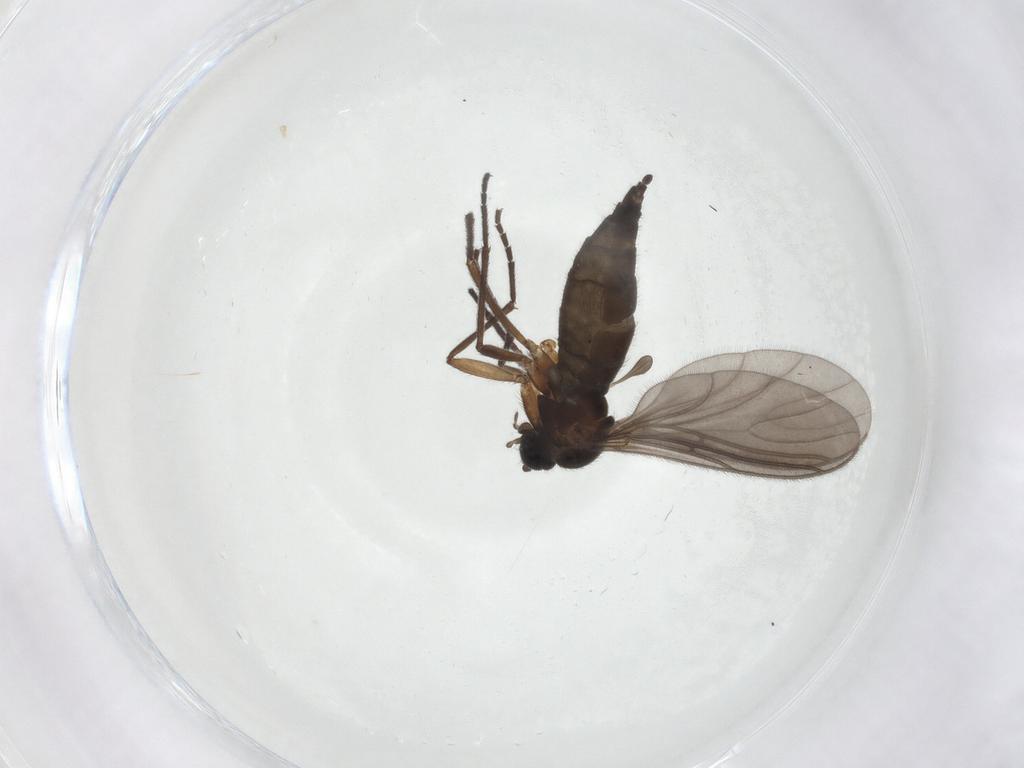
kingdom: Animalia
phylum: Arthropoda
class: Insecta
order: Diptera
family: Sciaridae
